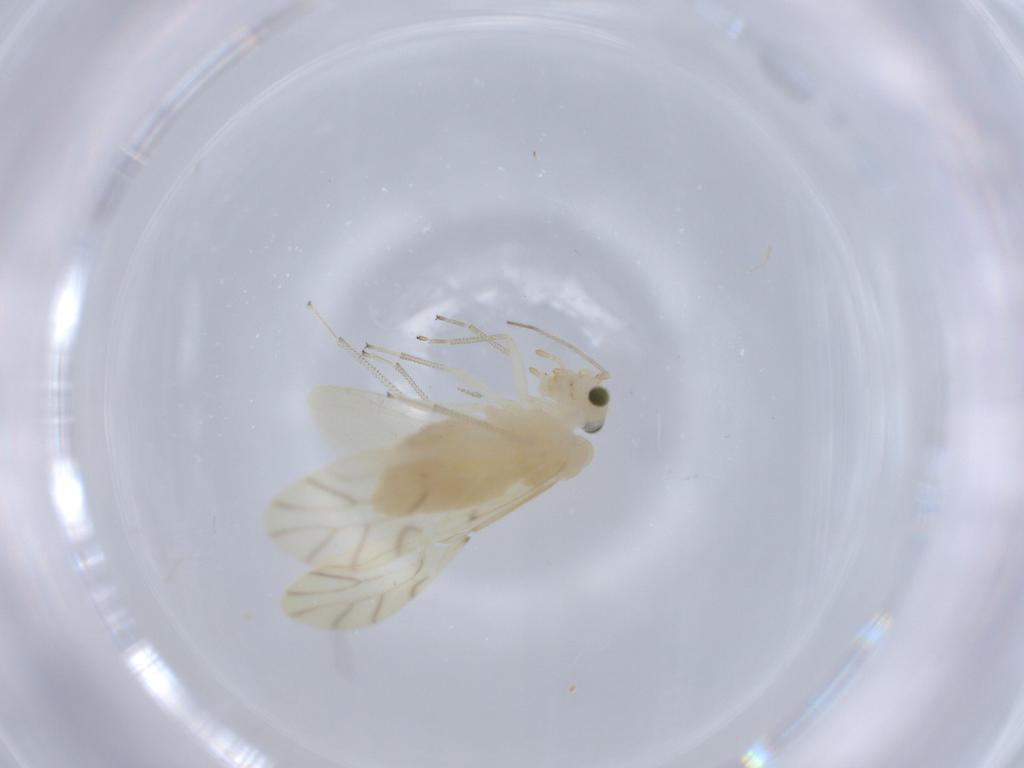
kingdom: Animalia
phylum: Arthropoda
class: Insecta
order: Psocodea
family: Caeciliusidae
